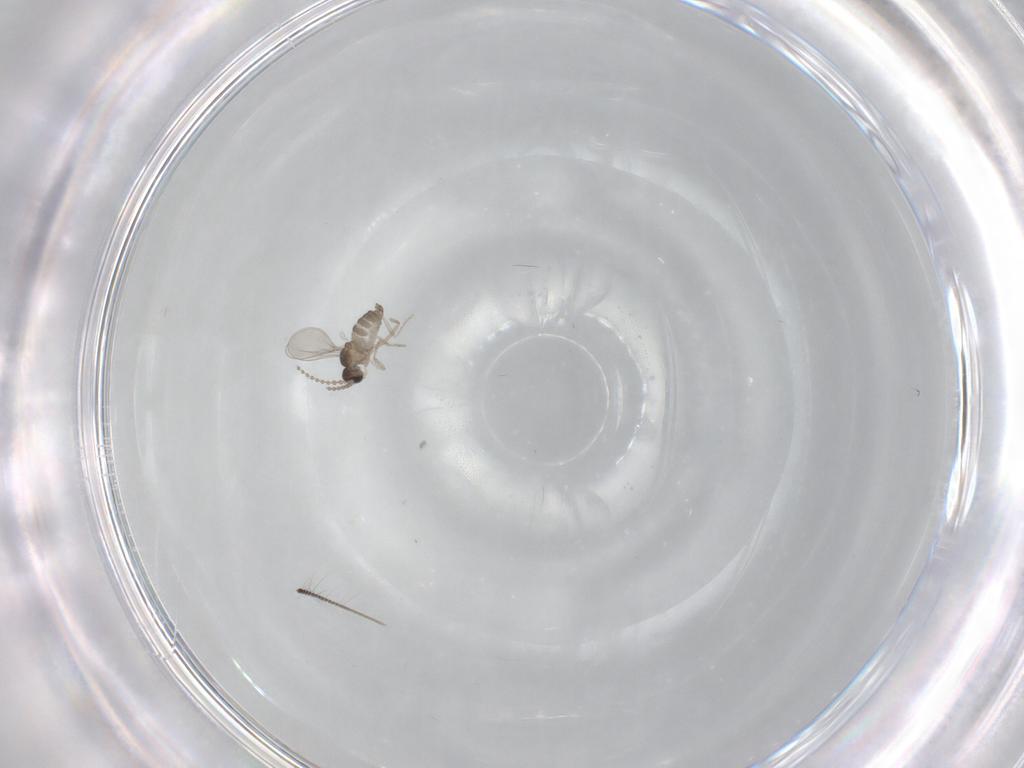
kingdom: Animalia
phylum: Arthropoda
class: Insecta
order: Diptera
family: Cecidomyiidae
